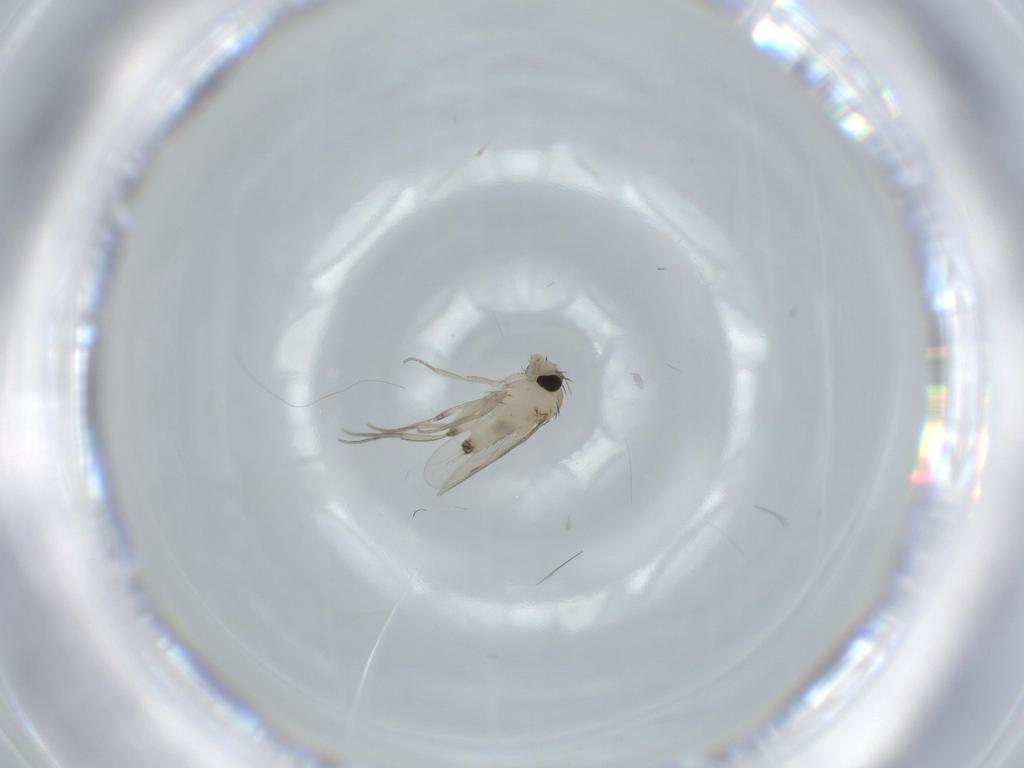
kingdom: Animalia
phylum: Arthropoda
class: Insecta
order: Diptera
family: Phoridae
